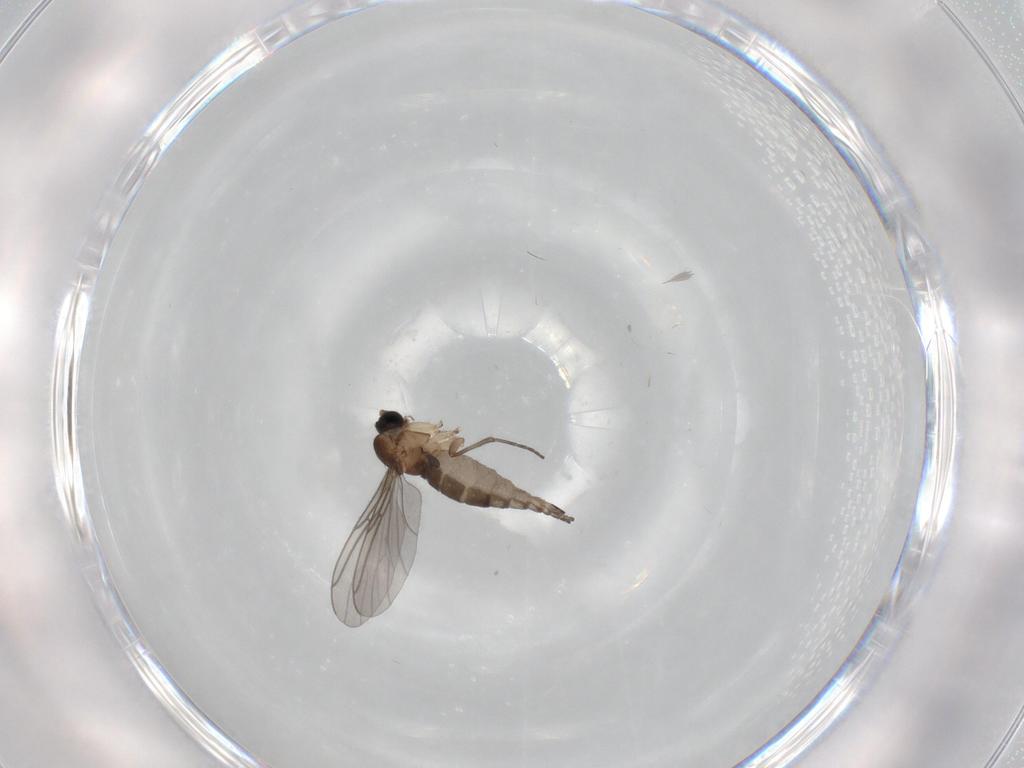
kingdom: Animalia
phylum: Arthropoda
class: Insecta
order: Diptera
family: Sciaridae
